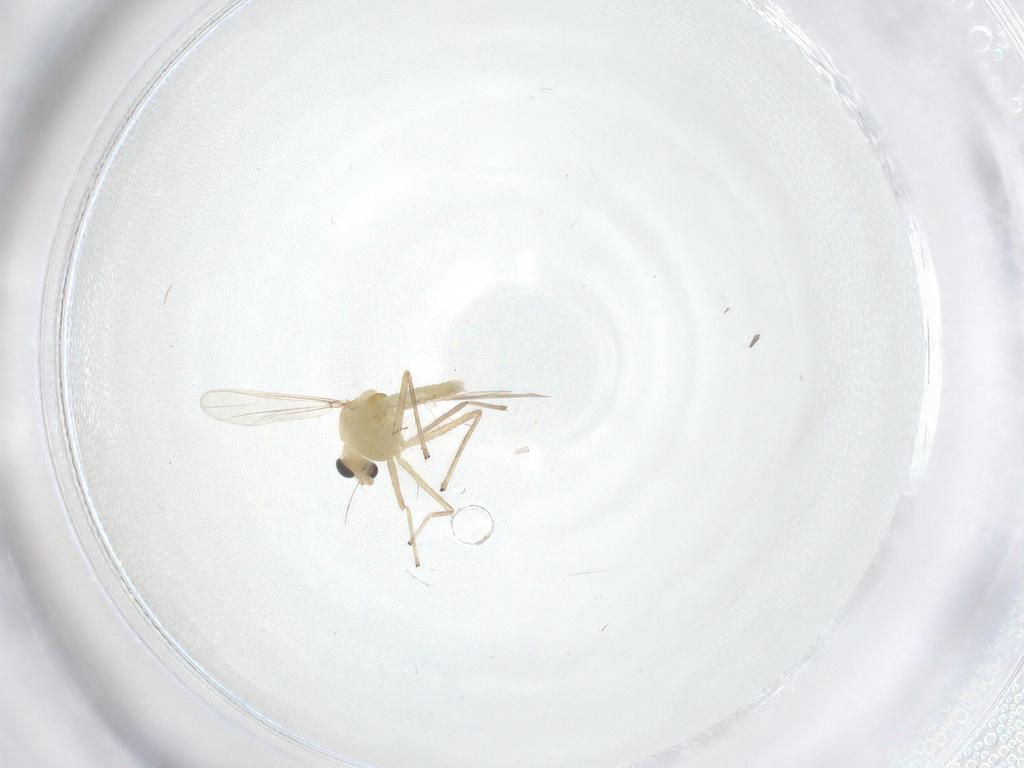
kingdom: Animalia
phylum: Arthropoda
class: Insecta
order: Diptera
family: Chironomidae
